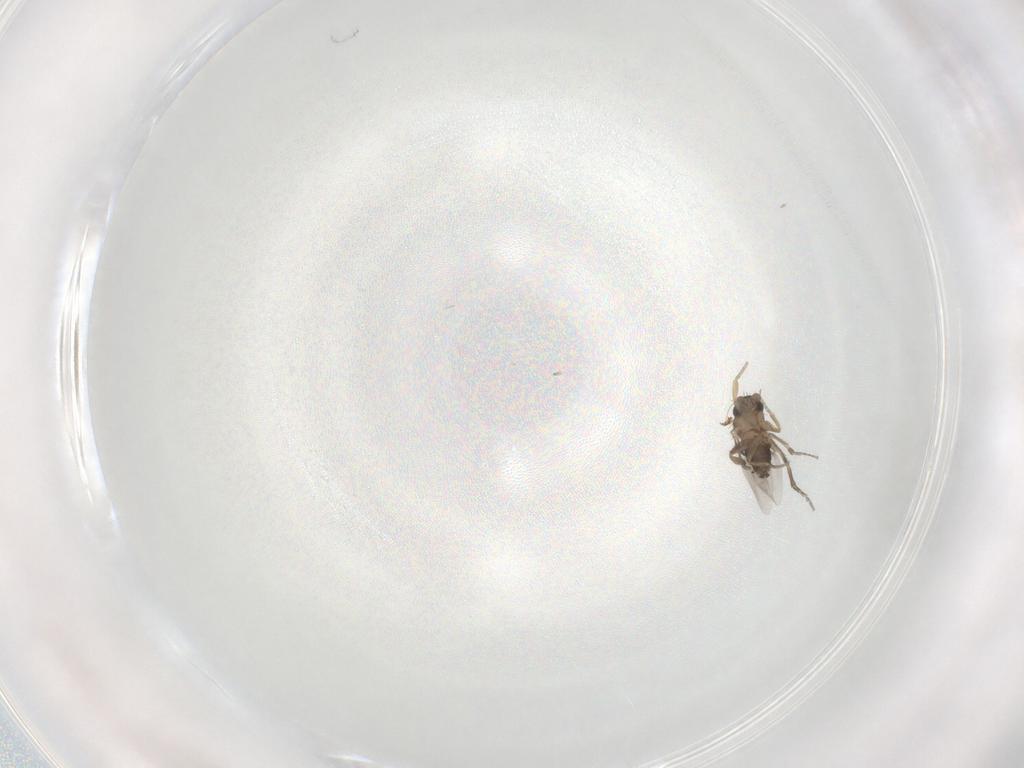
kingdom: Animalia
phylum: Arthropoda
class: Insecta
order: Diptera
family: Phoridae
